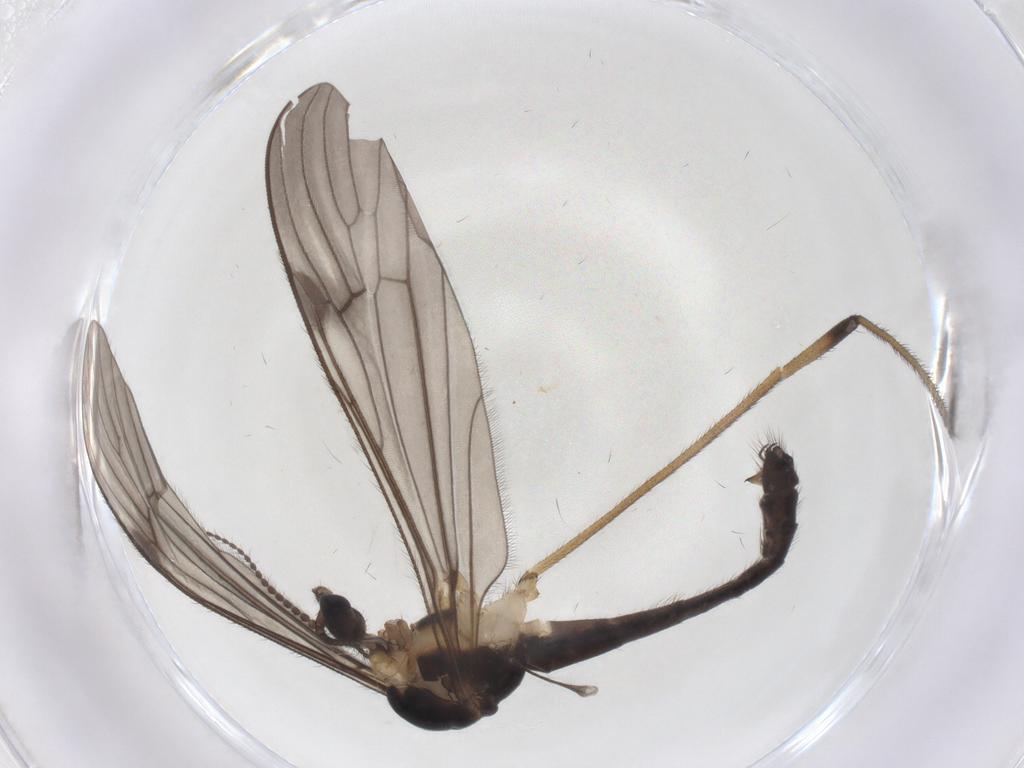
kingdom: Animalia
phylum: Arthropoda
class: Insecta
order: Diptera
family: Limoniidae
